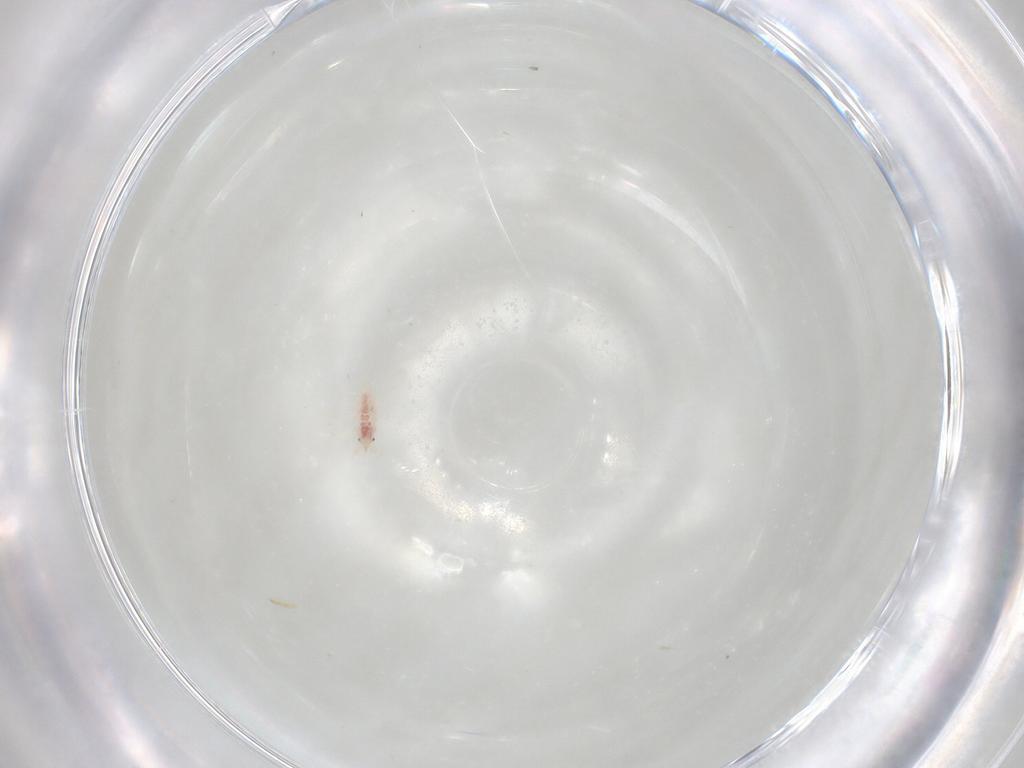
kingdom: Animalia
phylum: Arthropoda
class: Insecta
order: Neuroptera
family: Coniopterygidae
